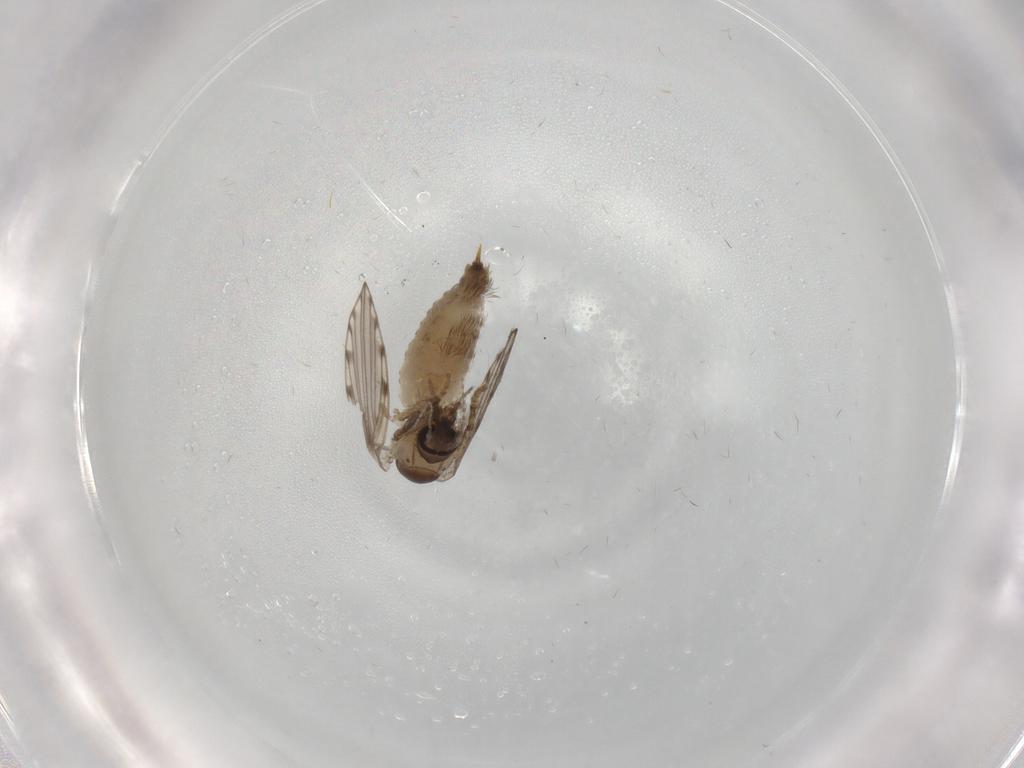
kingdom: Animalia
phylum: Arthropoda
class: Insecta
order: Diptera
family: Psychodidae
